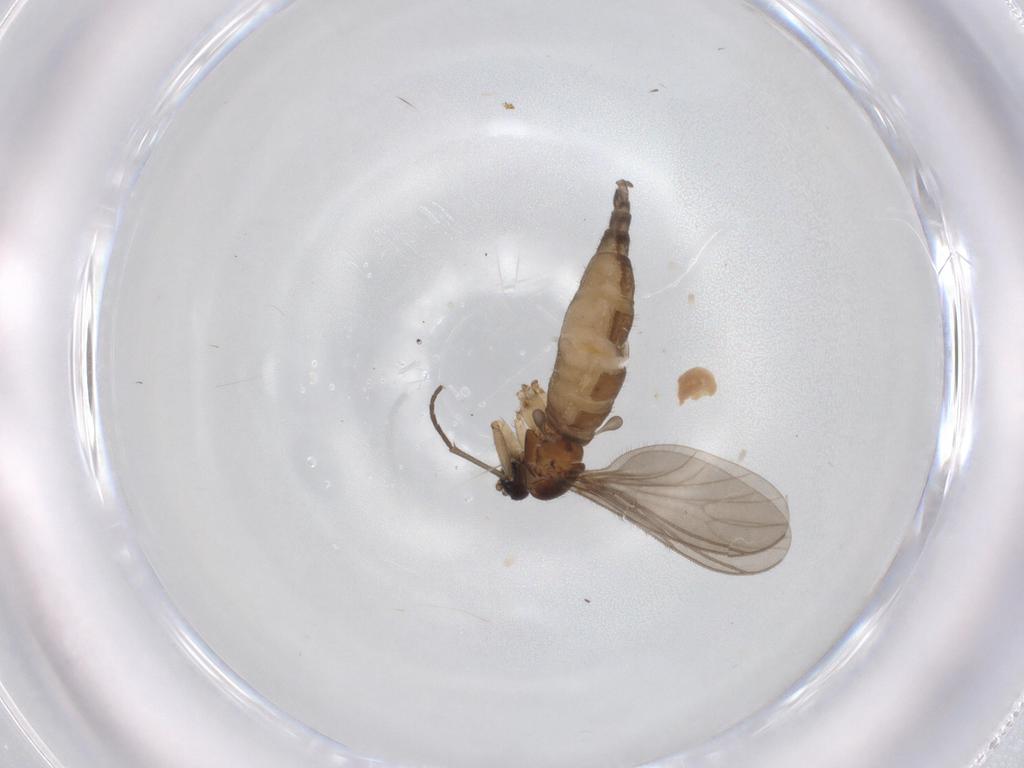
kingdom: Animalia
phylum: Arthropoda
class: Insecta
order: Diptera
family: Sciaridae
